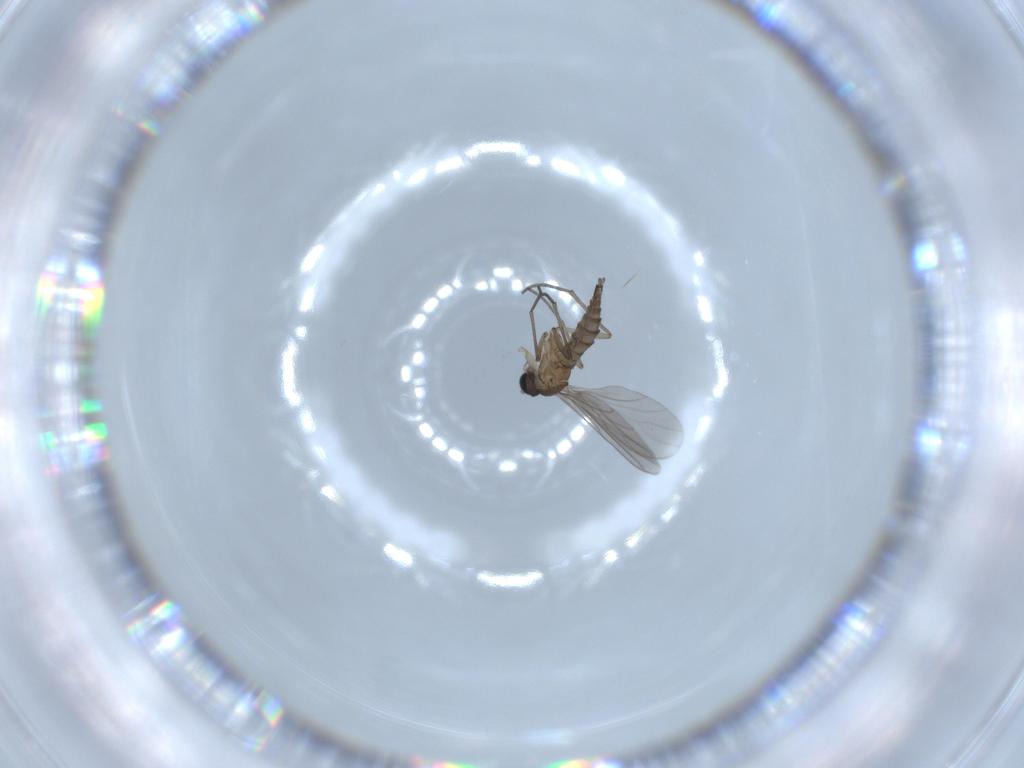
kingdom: Animalia
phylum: Arthropoda
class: Insecta
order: Diptera
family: Sciaridae
